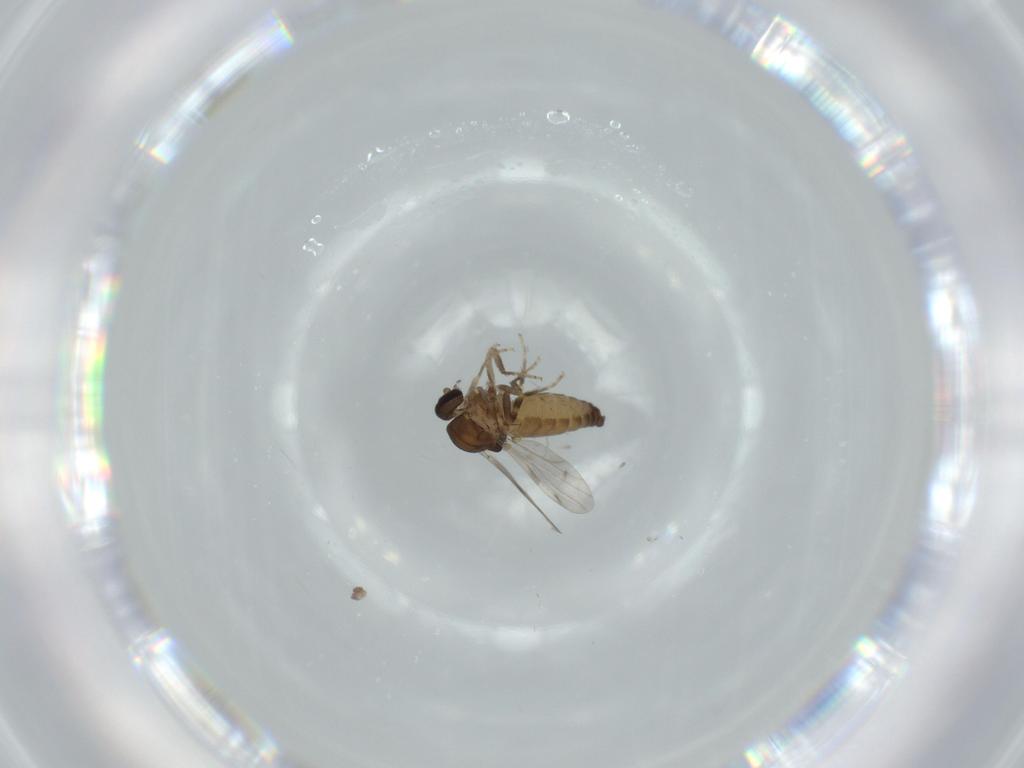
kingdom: Animalia
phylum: Arthropoda
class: Insecta
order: Diptera
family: Ceratopogonidae
